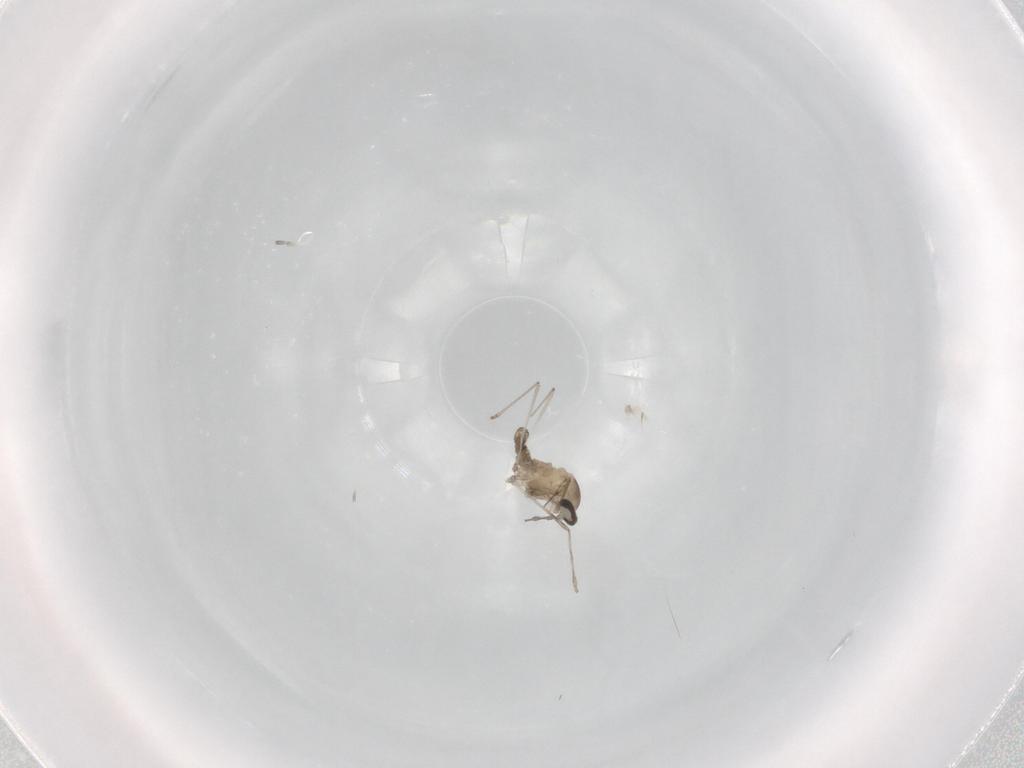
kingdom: Animalia
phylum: Arthropoda
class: Insecta
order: Diptera
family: Cecidomyiidae
